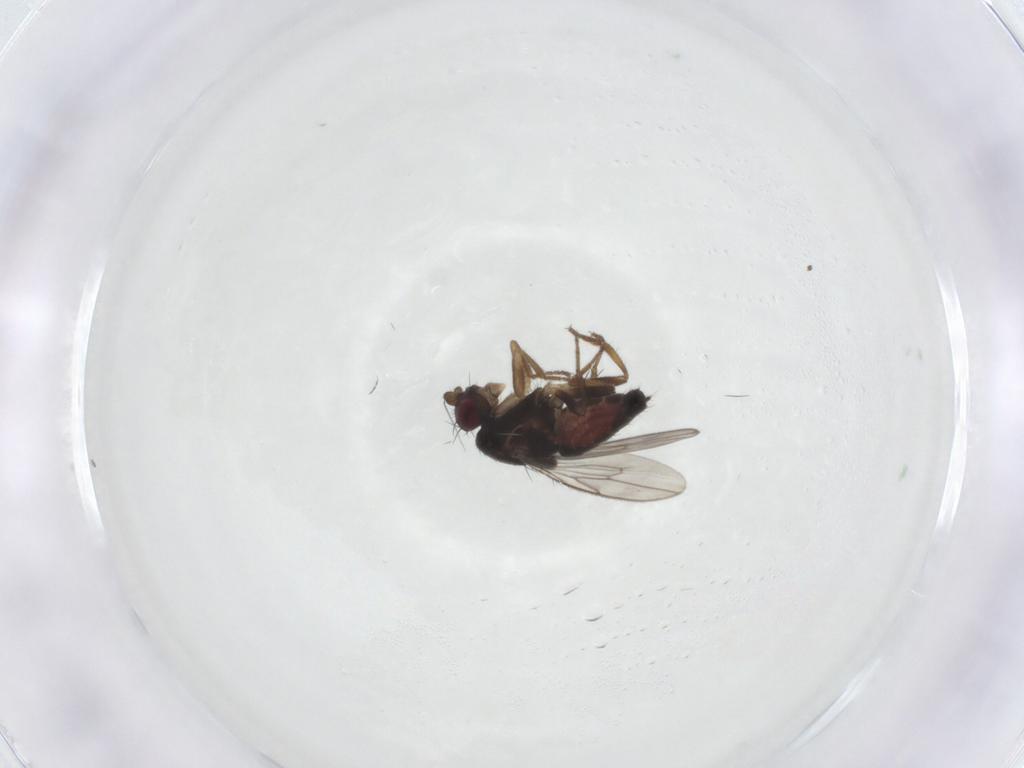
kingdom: Animalia
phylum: Arthropoda
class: Insecta
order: Diptera
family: Sphaeroceridae
